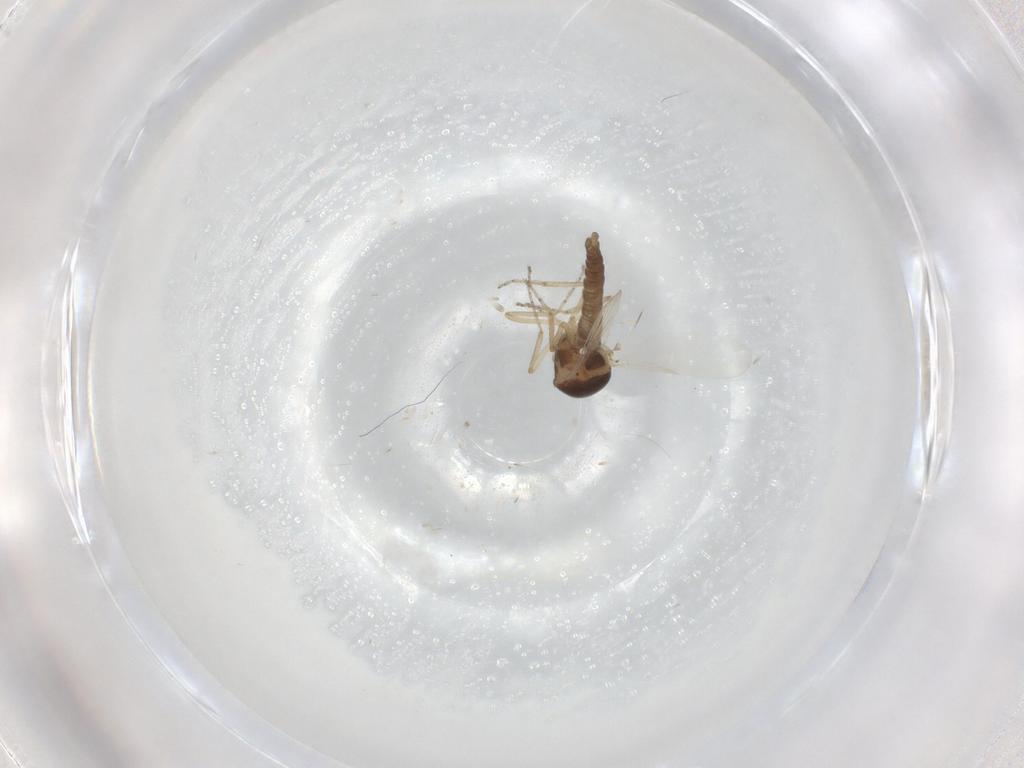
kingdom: Animalia
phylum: Arthropoda
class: Insecta
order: Diptera
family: Ceratopogonidae
